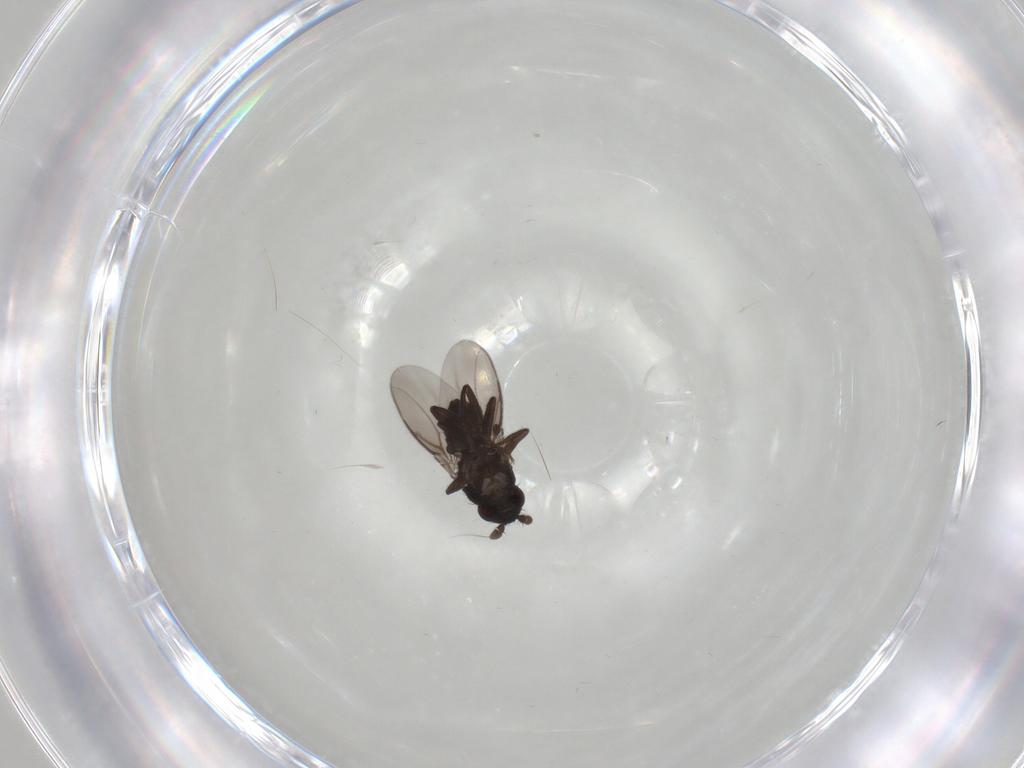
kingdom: Animalia
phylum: Arthropoda
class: Insecta
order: Diptera
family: Sphaeroceridae
